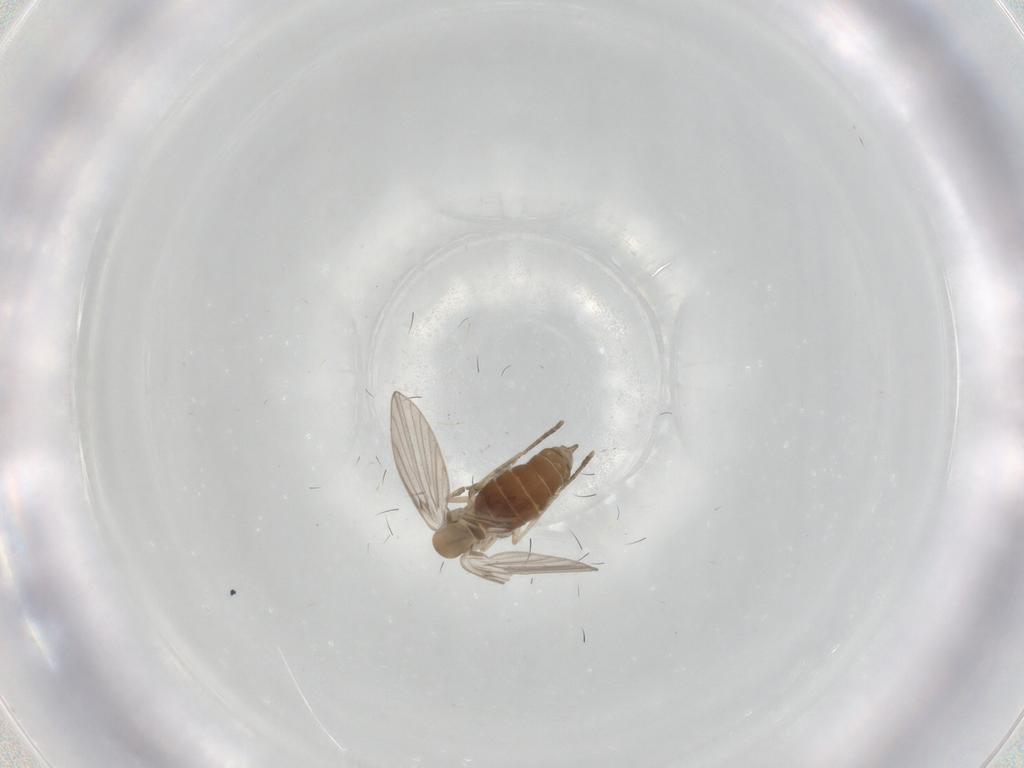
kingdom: Animalia
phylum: Arthropoda
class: Insecta
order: Diptera
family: Psychodidae
